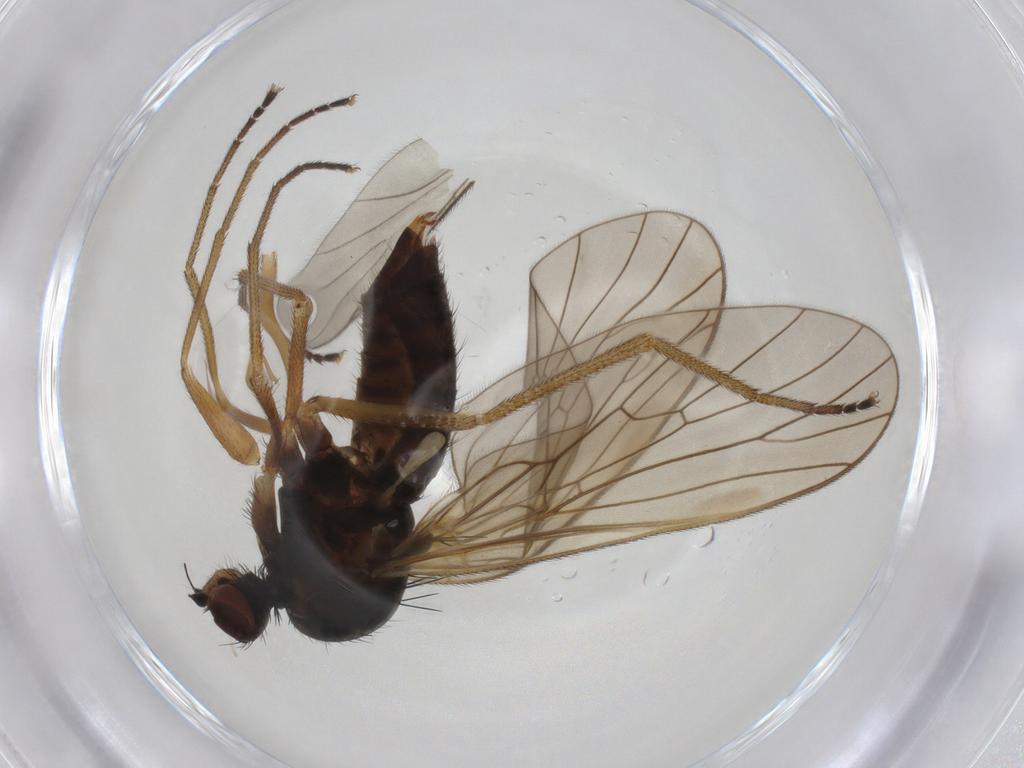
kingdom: Animalia
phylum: Arthropoda
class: Insecta
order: Diptera
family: Brachystomatidae
